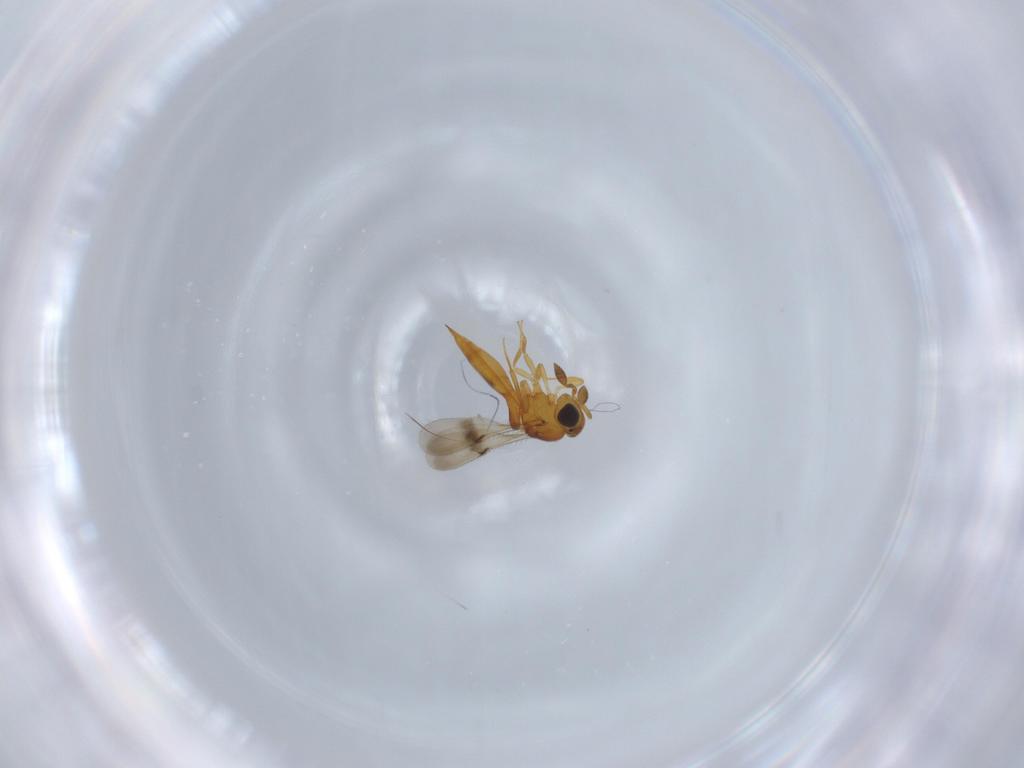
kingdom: Animalia
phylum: Arthropoda
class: Insecta
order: Hymenoptera
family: Scelionidae
